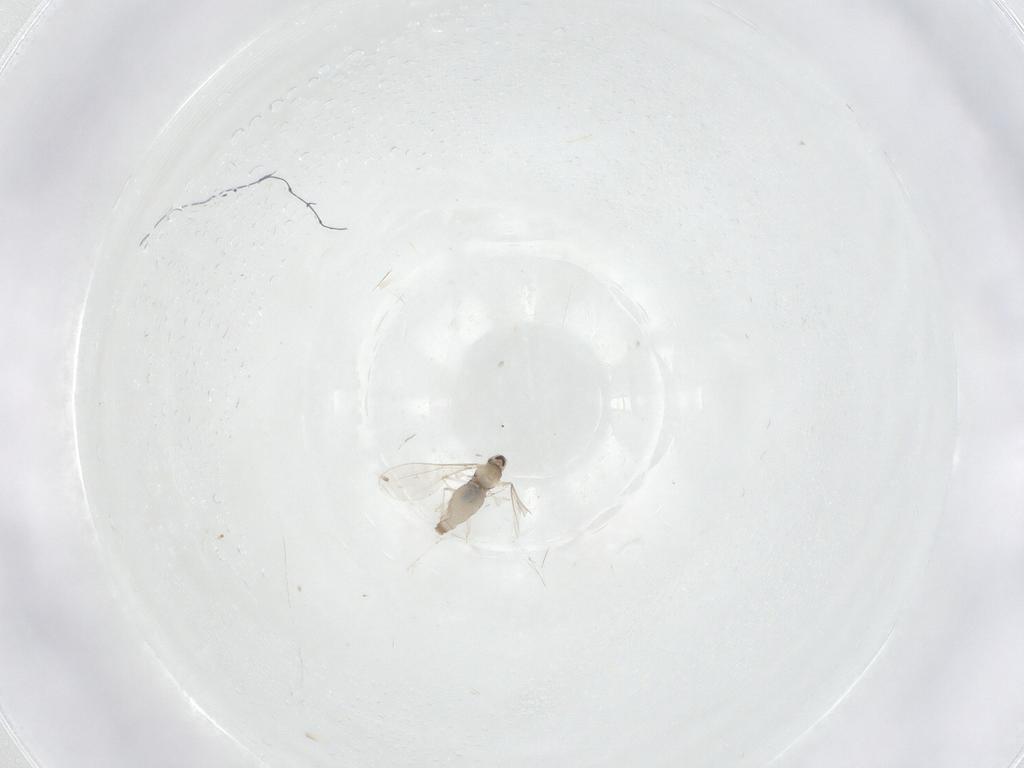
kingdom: Animalia
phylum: Arthropoda
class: Insecta
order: Diptera
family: Cecidomyiidae
